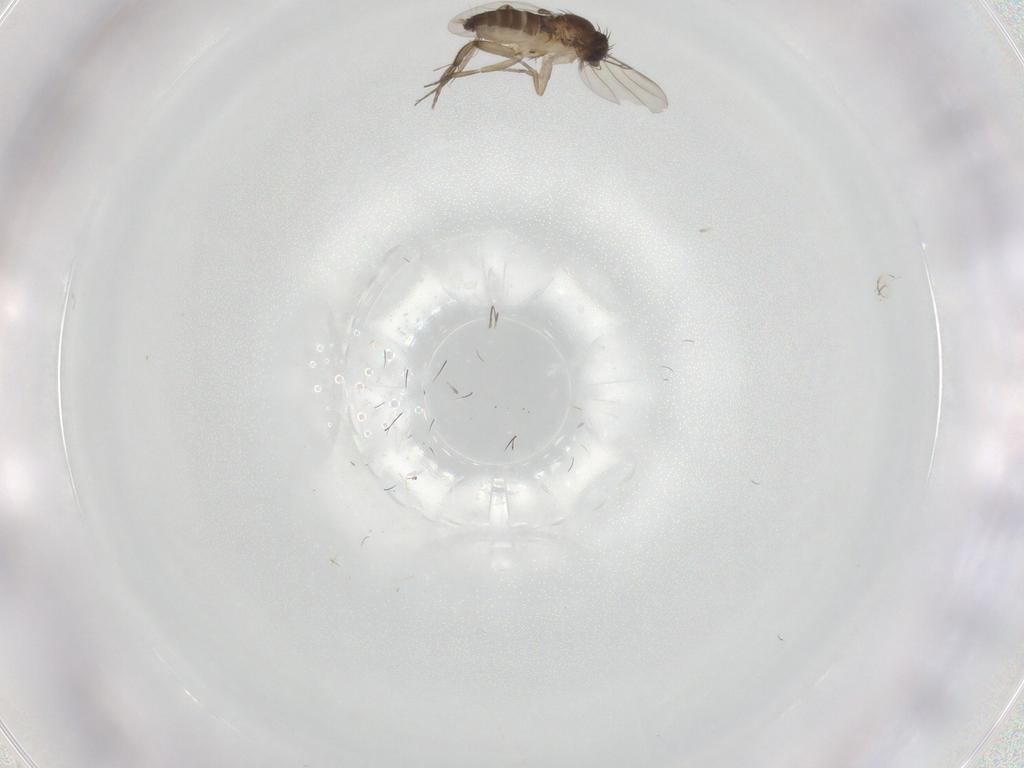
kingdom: Animalia
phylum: Arthropoda
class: Insecta
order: Diptera
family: Phoridae
